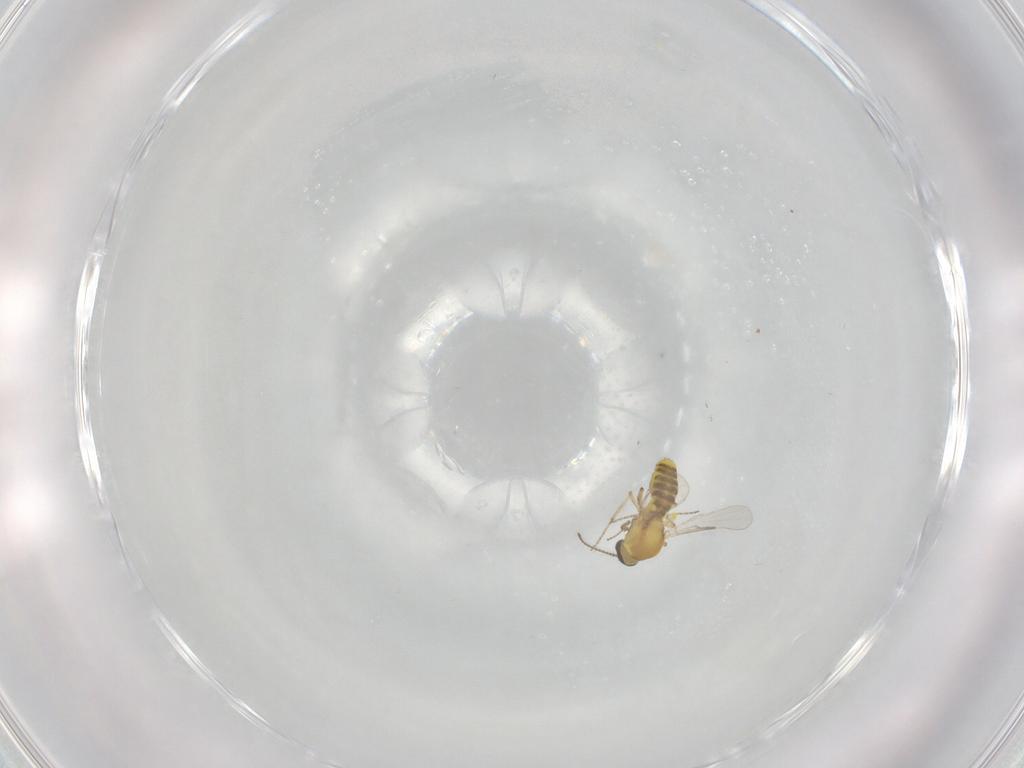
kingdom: Animalia
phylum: Arthropoda
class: Insecta
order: Diptera
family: Ceratopogonidae
